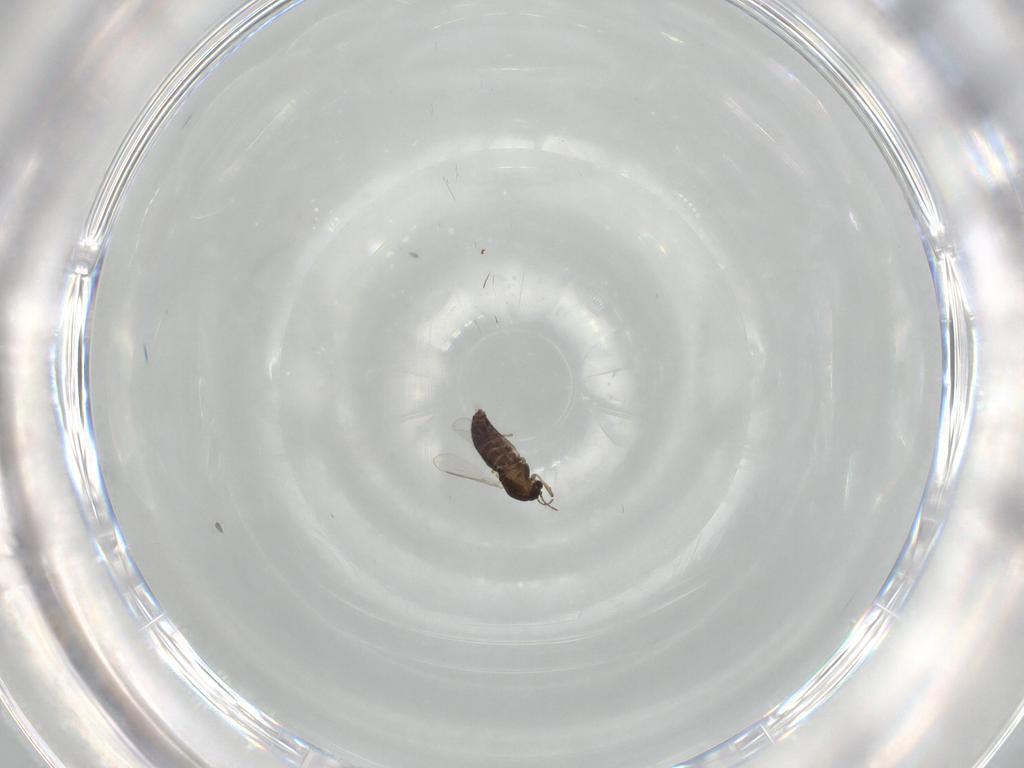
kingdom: Animalia
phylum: Arthropoda
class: Insecta
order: Diptera
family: Chironomidae
